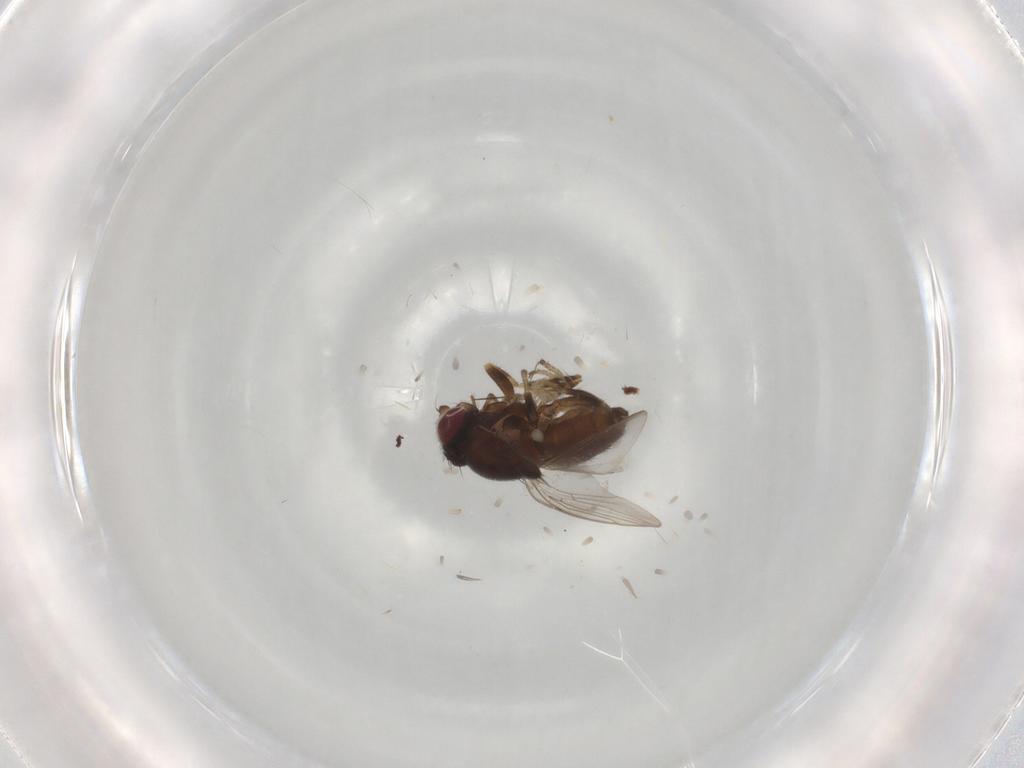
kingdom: Animalia
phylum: Arthropoda
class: Insecta
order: Diptera
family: Chloropidae
